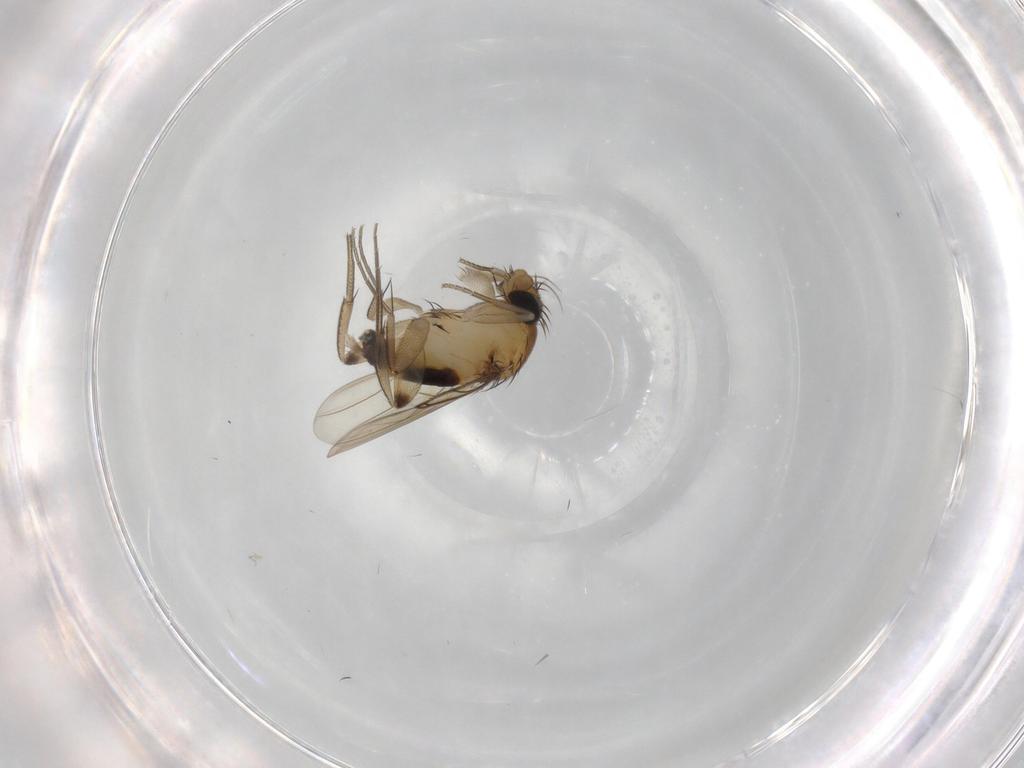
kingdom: Animalia
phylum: Arthropoda
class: Insecta
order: Diptera
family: Phoridae
